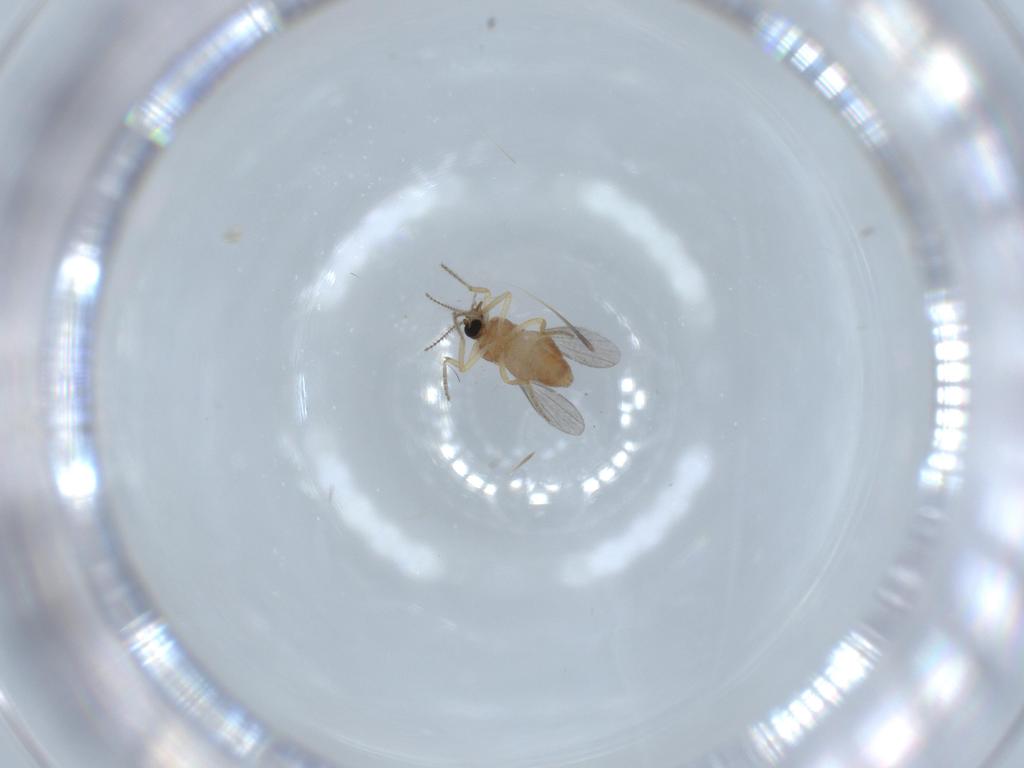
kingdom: Animalia
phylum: Arthropoda
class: Insecta
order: Diptera
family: Ceratopogonidae
